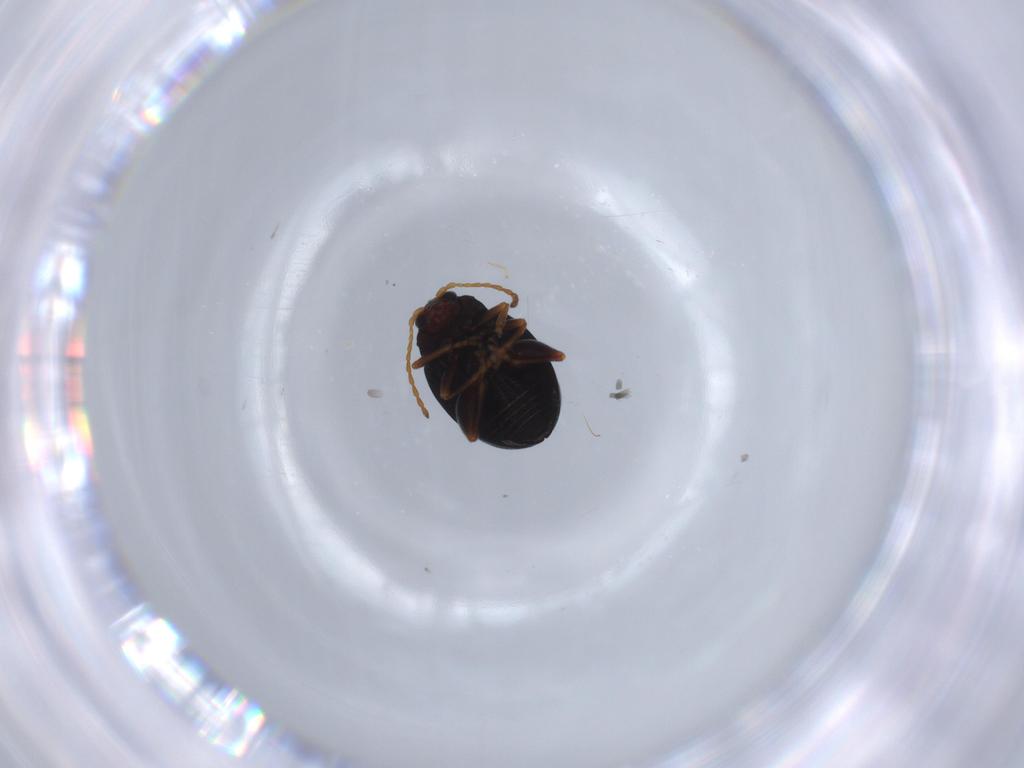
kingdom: Animalia
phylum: Arthropoda
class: Insecta
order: Coleoptera
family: Chrysomelidae
